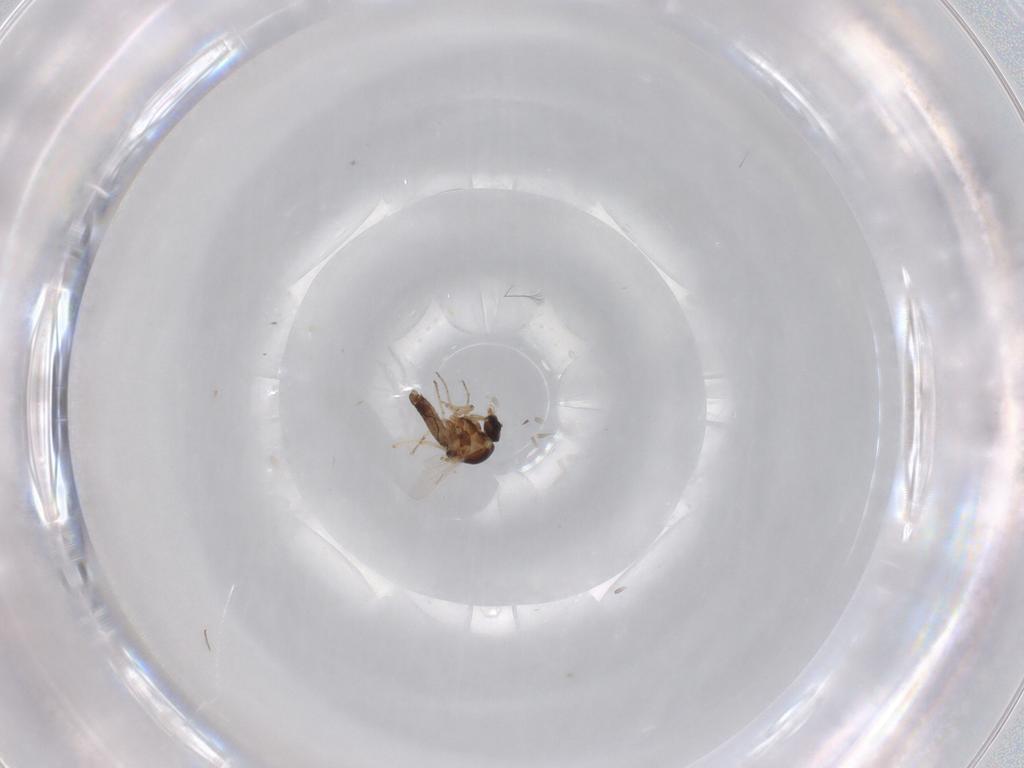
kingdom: Animalia
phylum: Arthropoda
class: Insecta
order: Diptera
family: Ceratopogonidae
